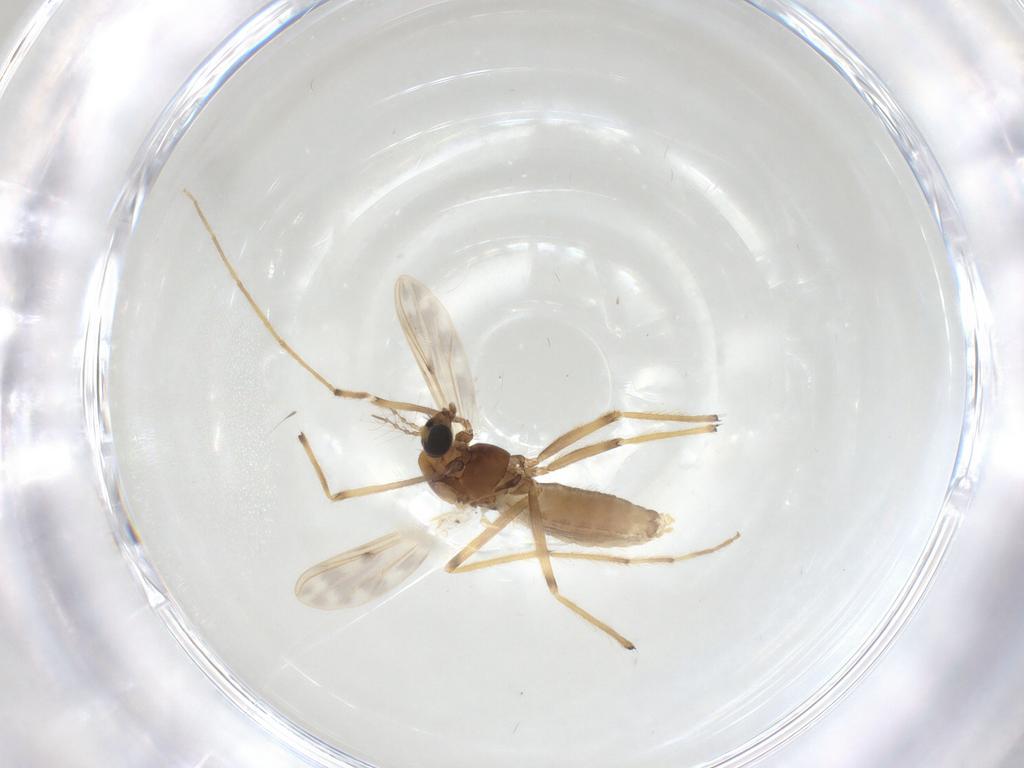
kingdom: Animalia
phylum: Arthropoda
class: Insecta
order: Diptera
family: Chironomidae
